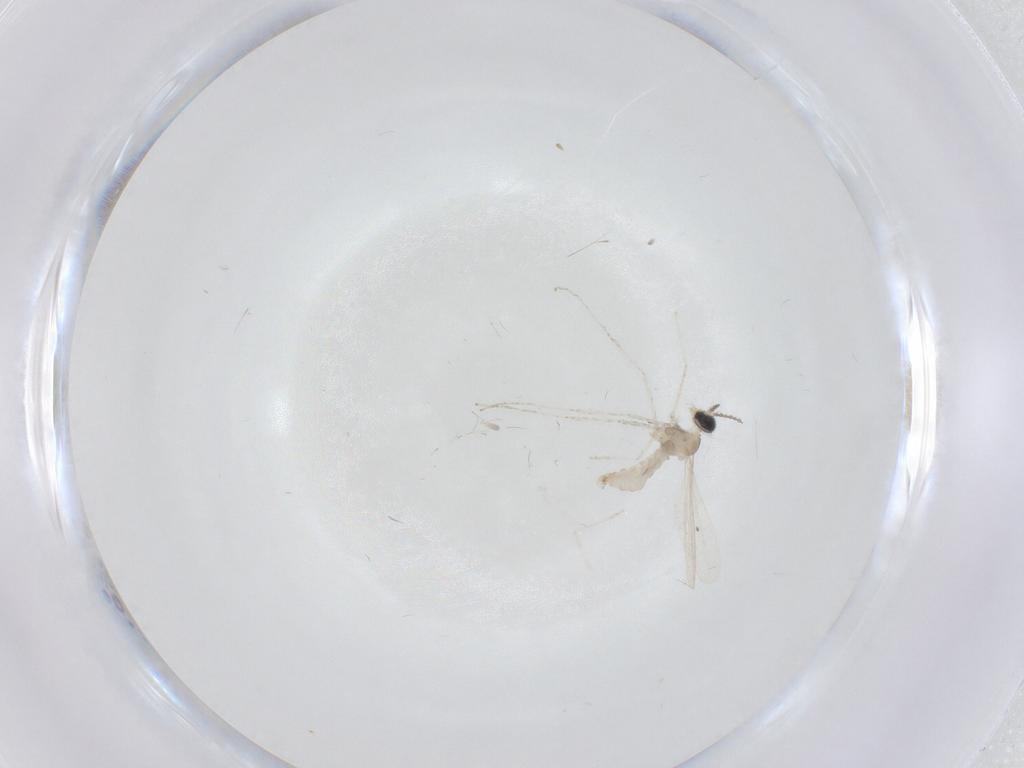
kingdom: Animalia
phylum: Arthropoda
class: Insecta
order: Diptera
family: Cecidomyiidae
